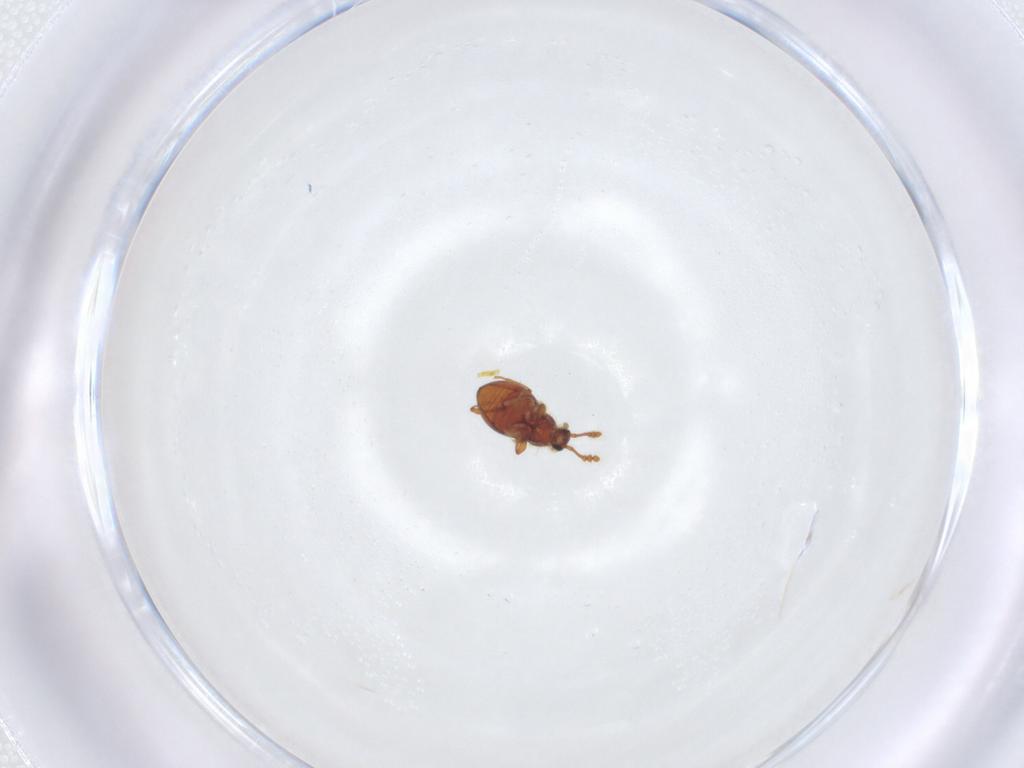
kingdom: Animalia
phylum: Arthropoda
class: Insecta
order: Coleoptera
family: Staphylinidae
